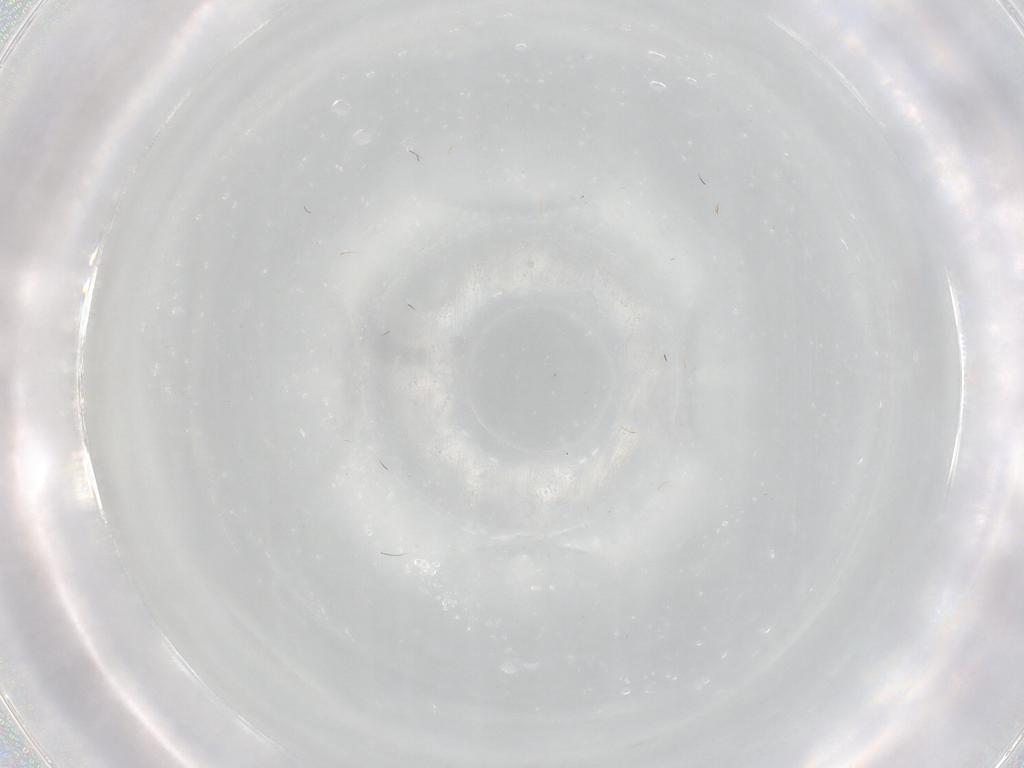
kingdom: Animalia
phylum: Arthropoda
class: Insecta
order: Diptera
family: Ceratopogonidae
